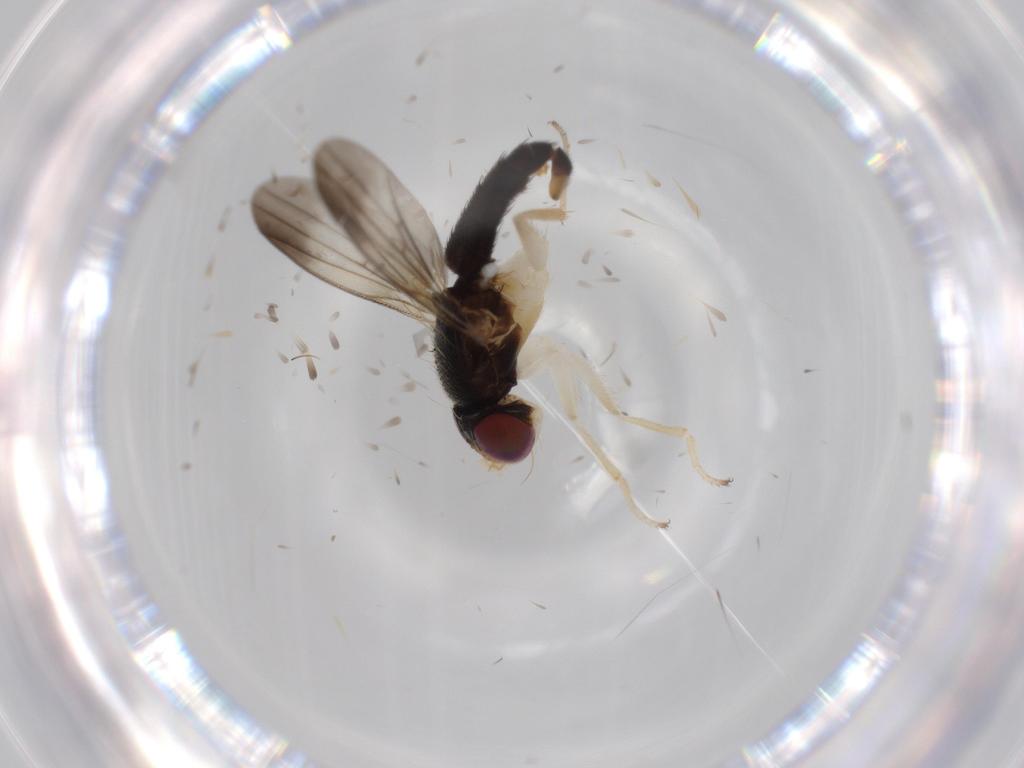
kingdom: Animalia
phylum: Arthropoda
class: Insecta
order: Diptera
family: Clusiidae
